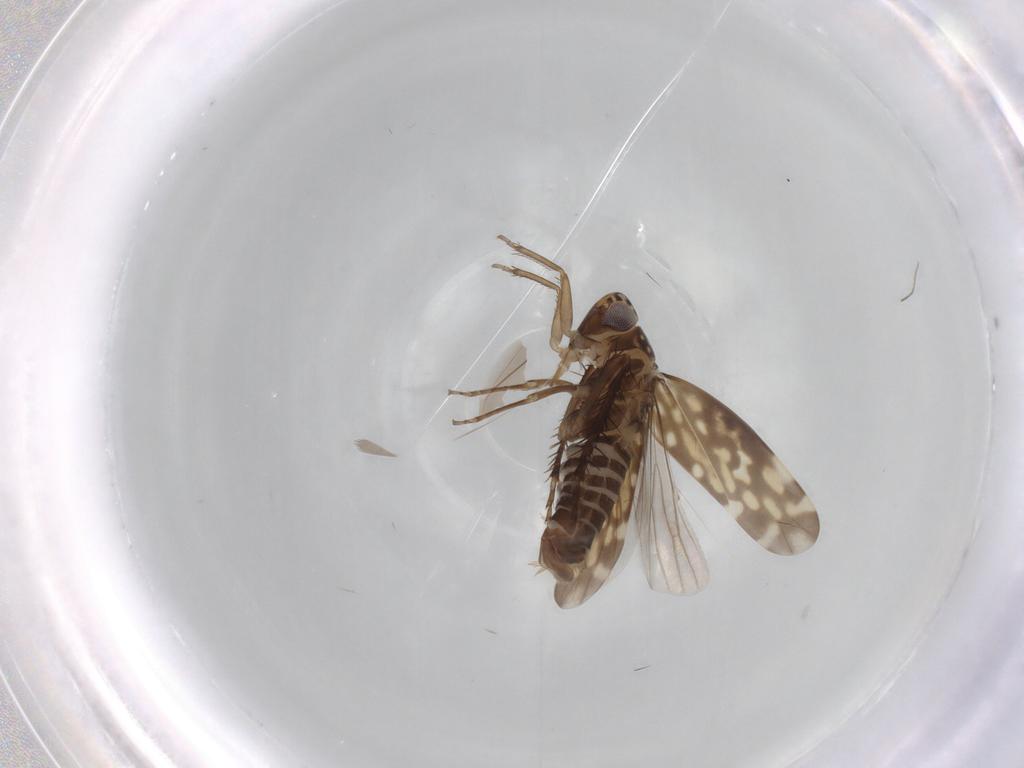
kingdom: Animalia
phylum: Arthropoda
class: Insecta
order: Hemiptera
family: Cicadellidae
